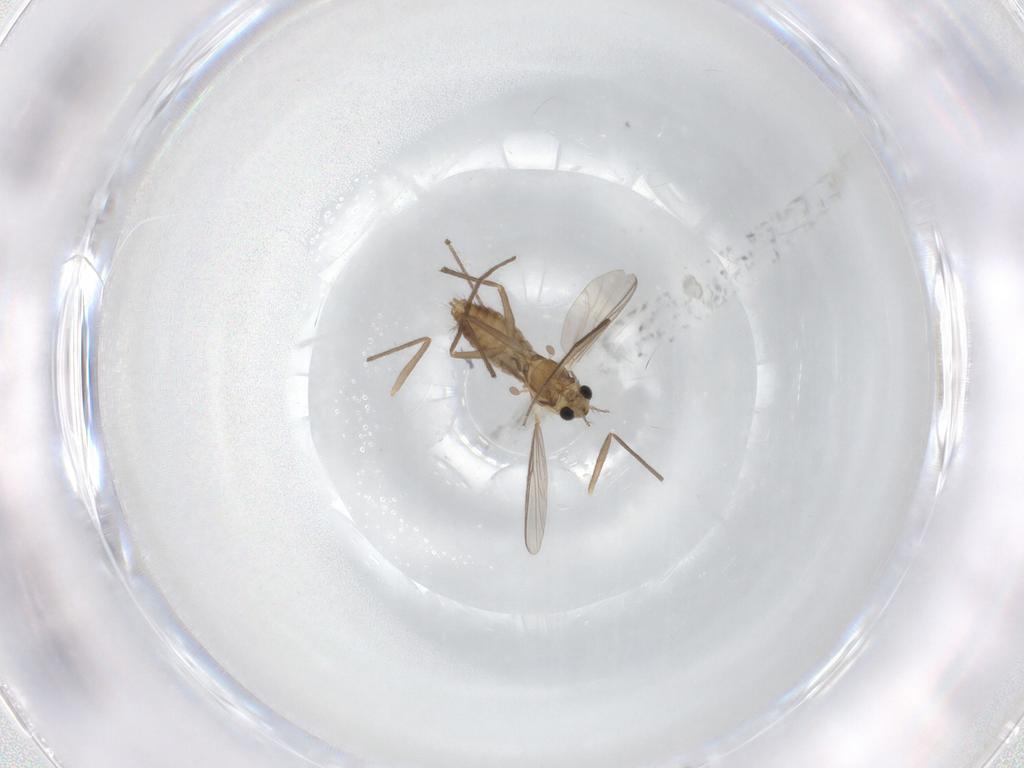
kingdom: Animalia
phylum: Arthropoda
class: Insecta
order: Diptera
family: Chironomidae
